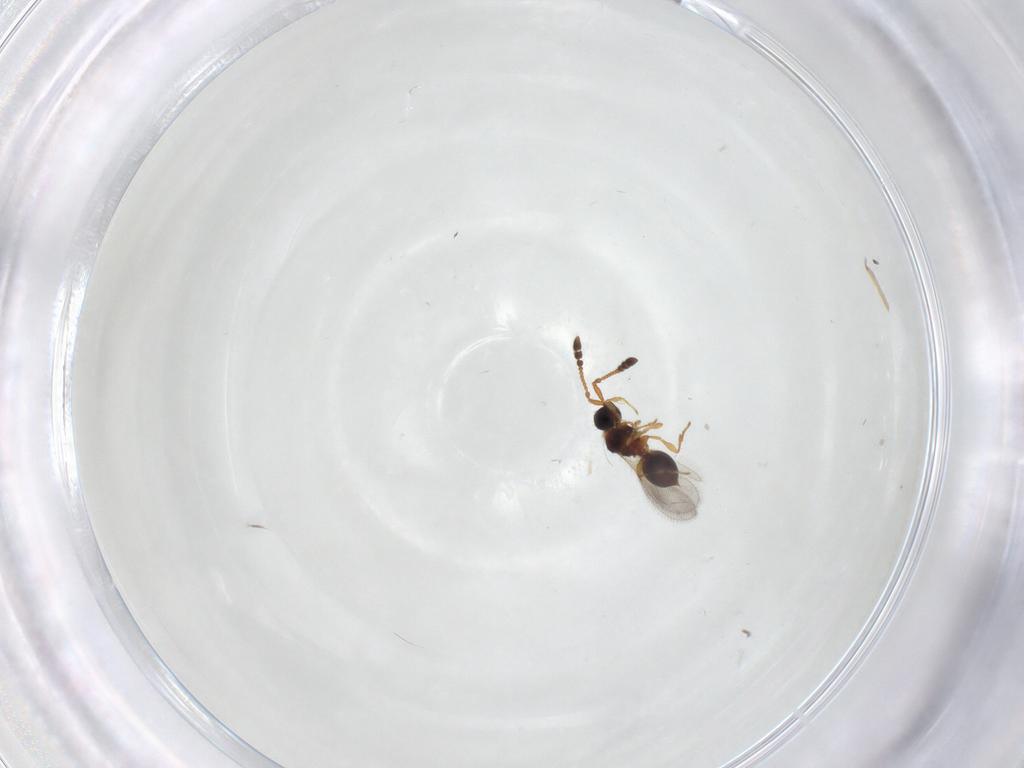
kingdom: Animalia
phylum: Arthropoda
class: Insecta
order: Hymenoptera
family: Diapriidae
